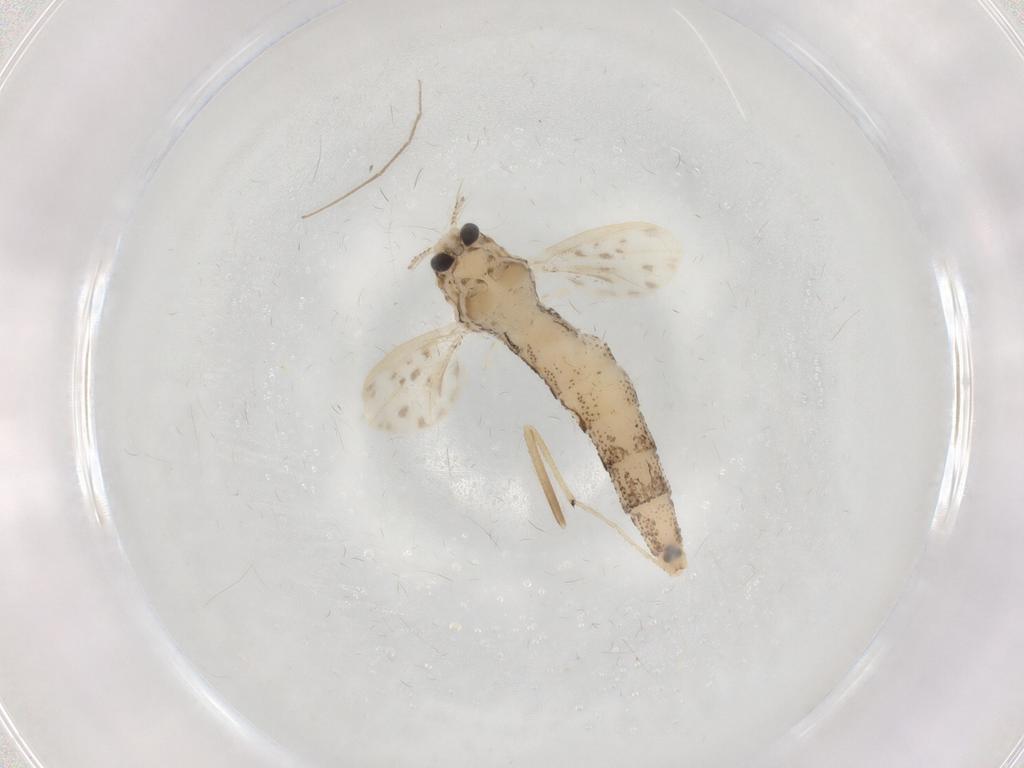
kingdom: Animalia
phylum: Arthropoda
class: Insecta
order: Diptera
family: Chaoboridae
